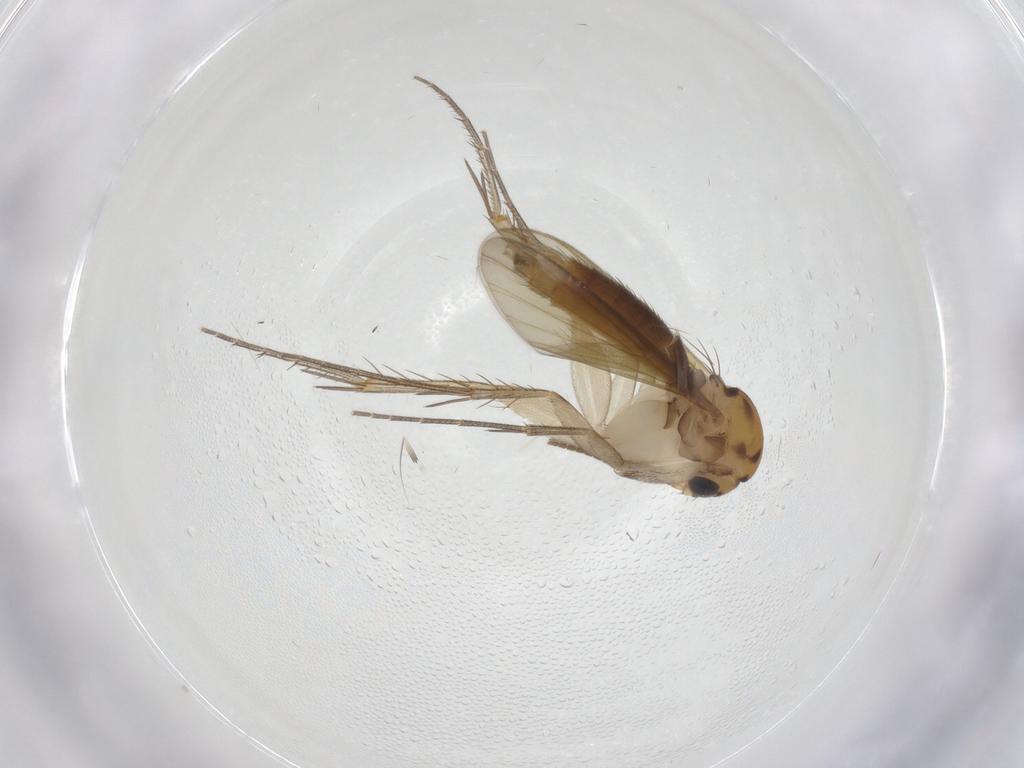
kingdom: Animalia
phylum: Arthropoda
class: Insecta
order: Diptera
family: Mycetophilidae
